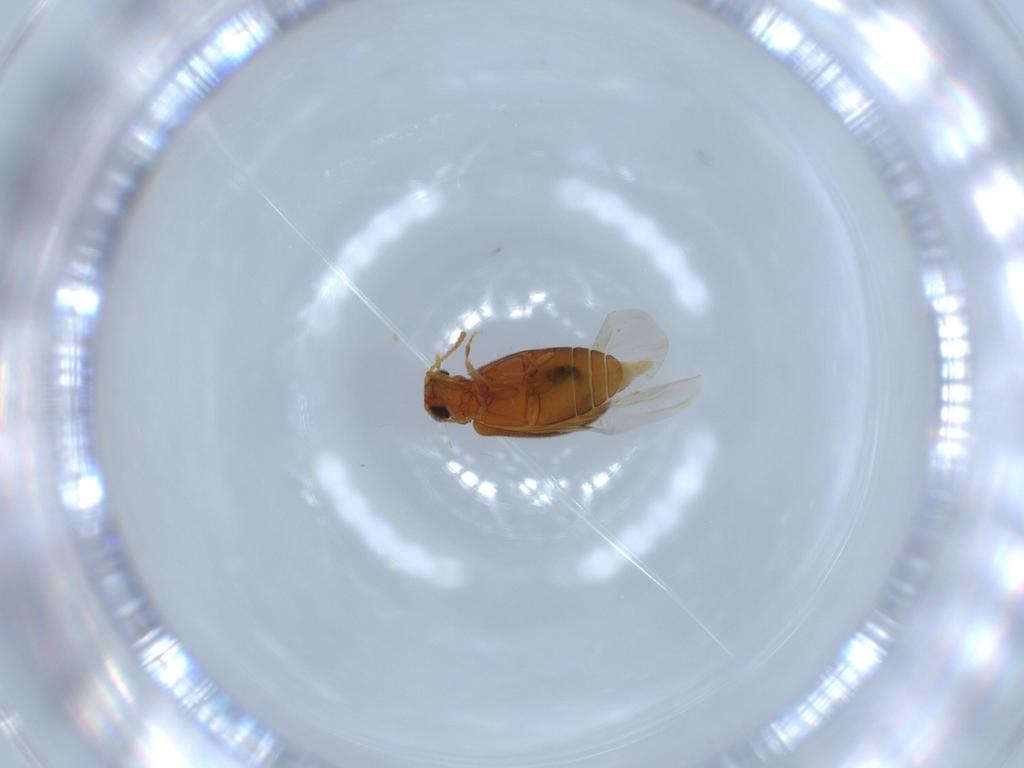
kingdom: Animalia
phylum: Arthropoda
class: Insecta
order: Coleoptera
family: Aderidae
